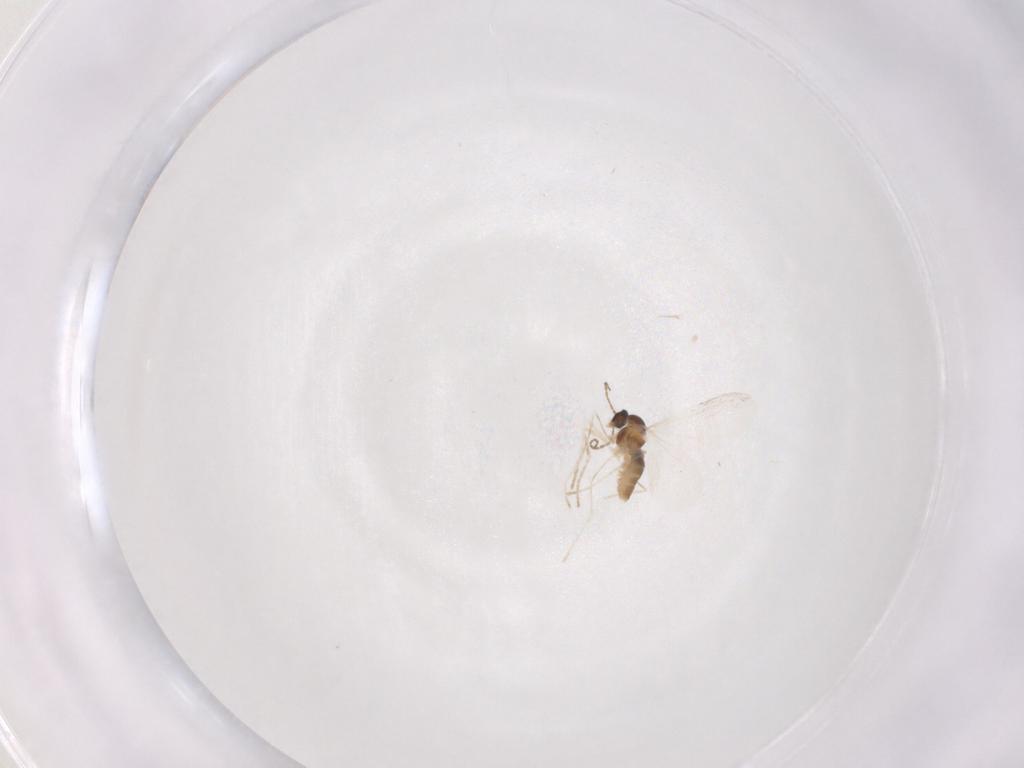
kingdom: Animalia
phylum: Arthropoda
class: Insecta
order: Diptera
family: Cecidomyiidae
